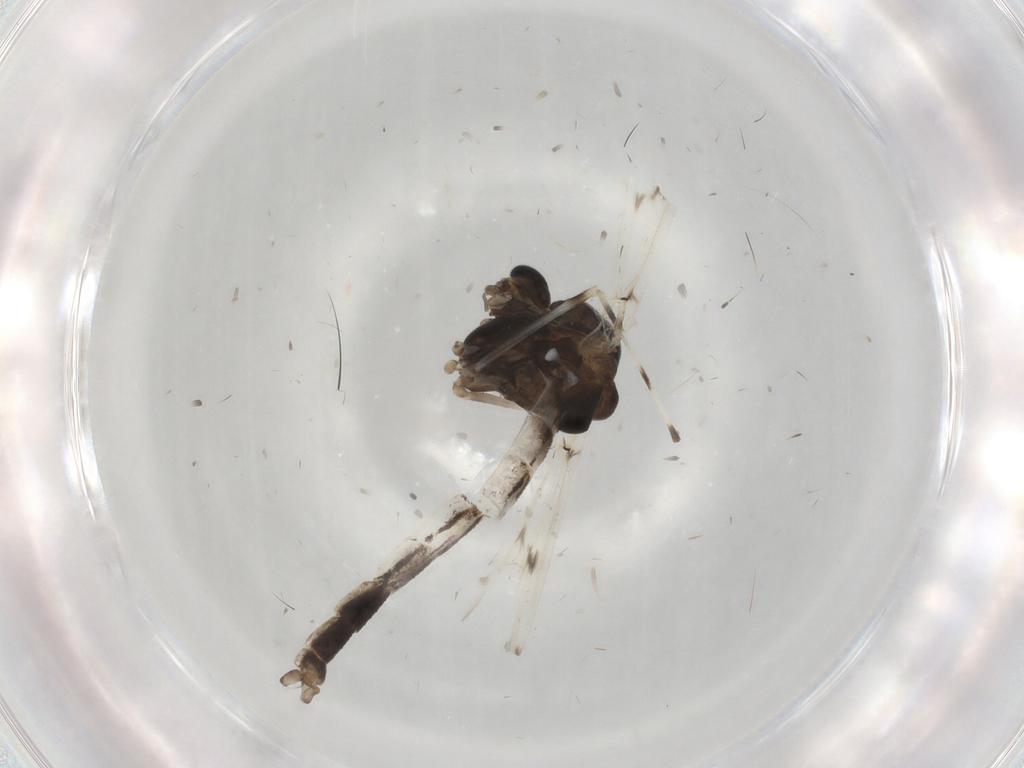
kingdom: Animalia
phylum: Arthropoda
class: Insecta
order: Diptera
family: Chironomidae
